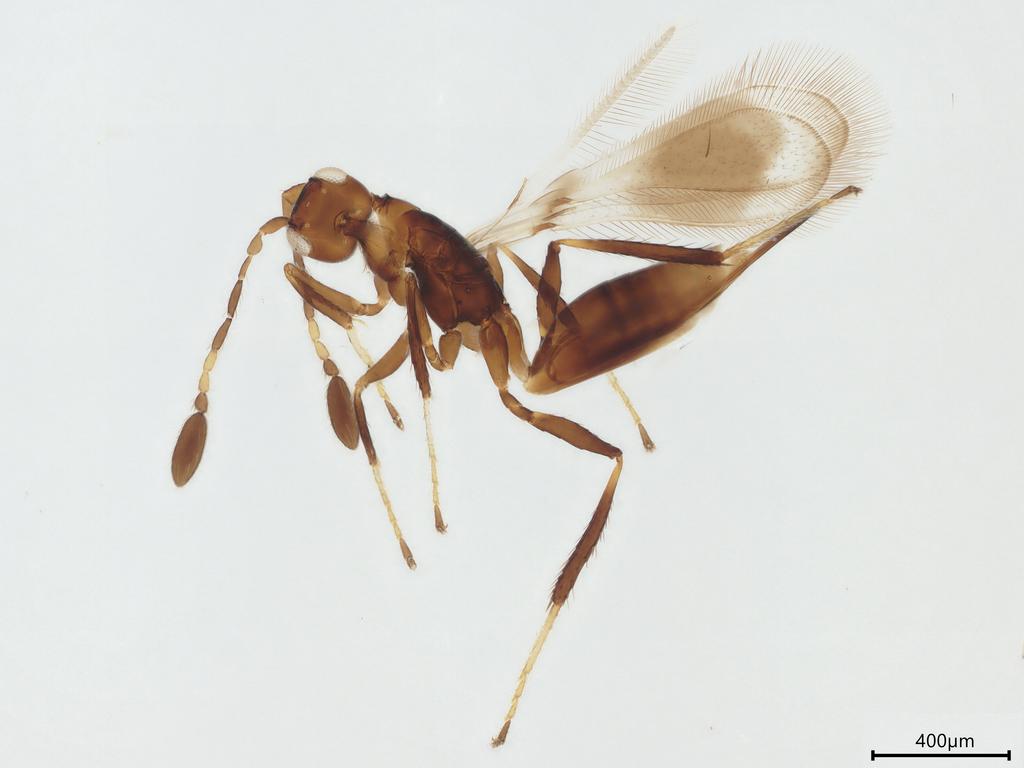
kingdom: Animalia
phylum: Arthropoda
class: Insecta
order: Hymenoptera
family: Mymaridae
